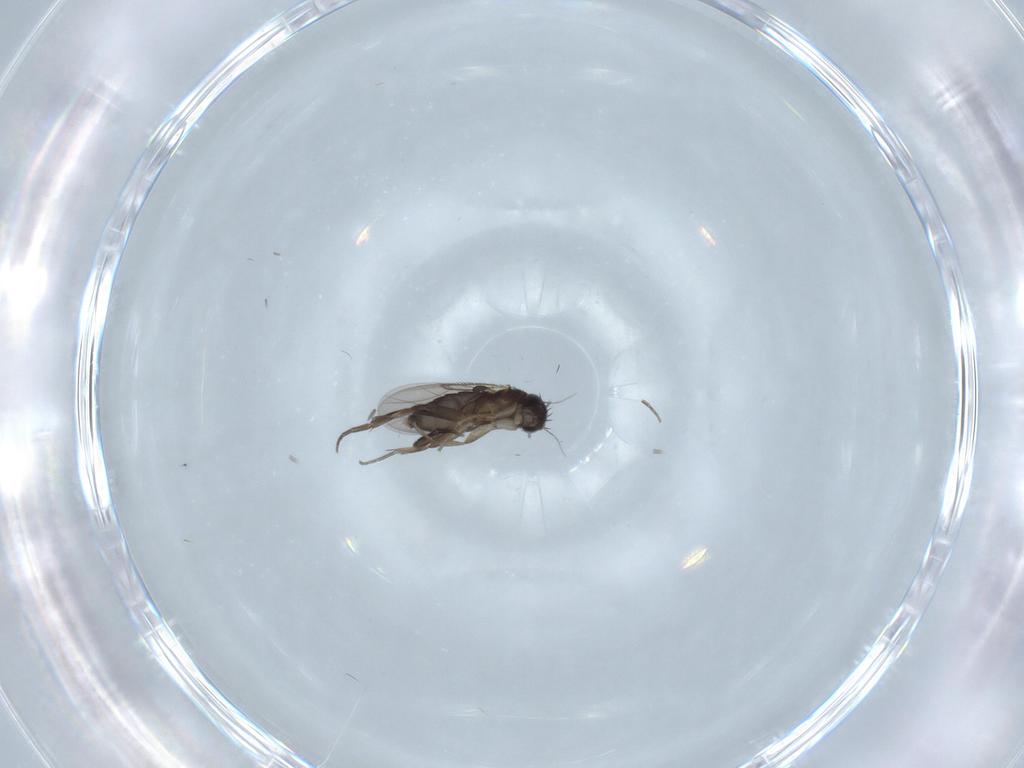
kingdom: Animalia
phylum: Arthropoda
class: Insecta
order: Diptera
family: Phoridae
